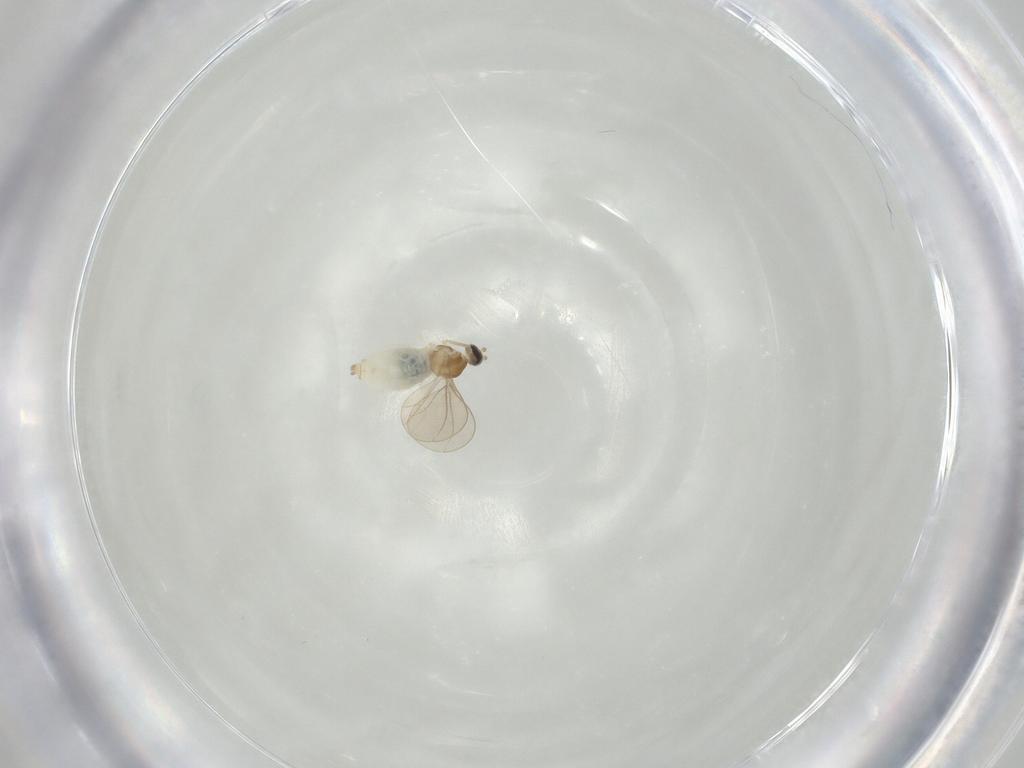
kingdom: Animalia
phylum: Arthropoda
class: Insecta
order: Diptera
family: Cecidomyiidae
